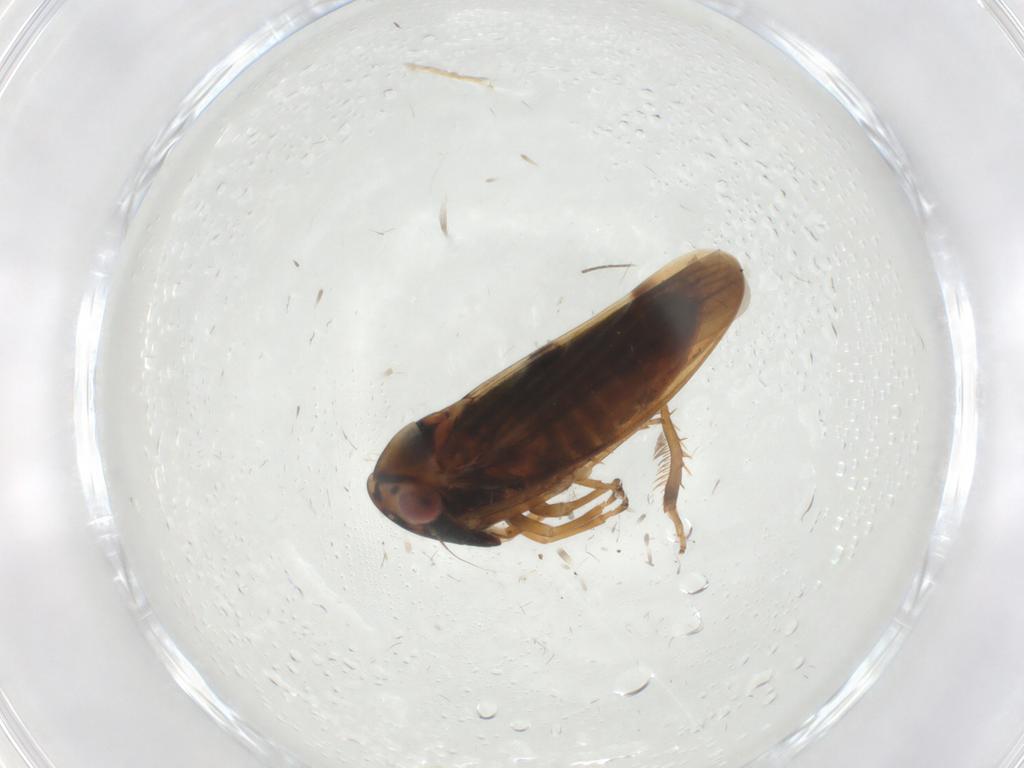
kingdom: Animalia
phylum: Arthropoda
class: Insecta
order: Hemiptera
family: Cicadellidae
